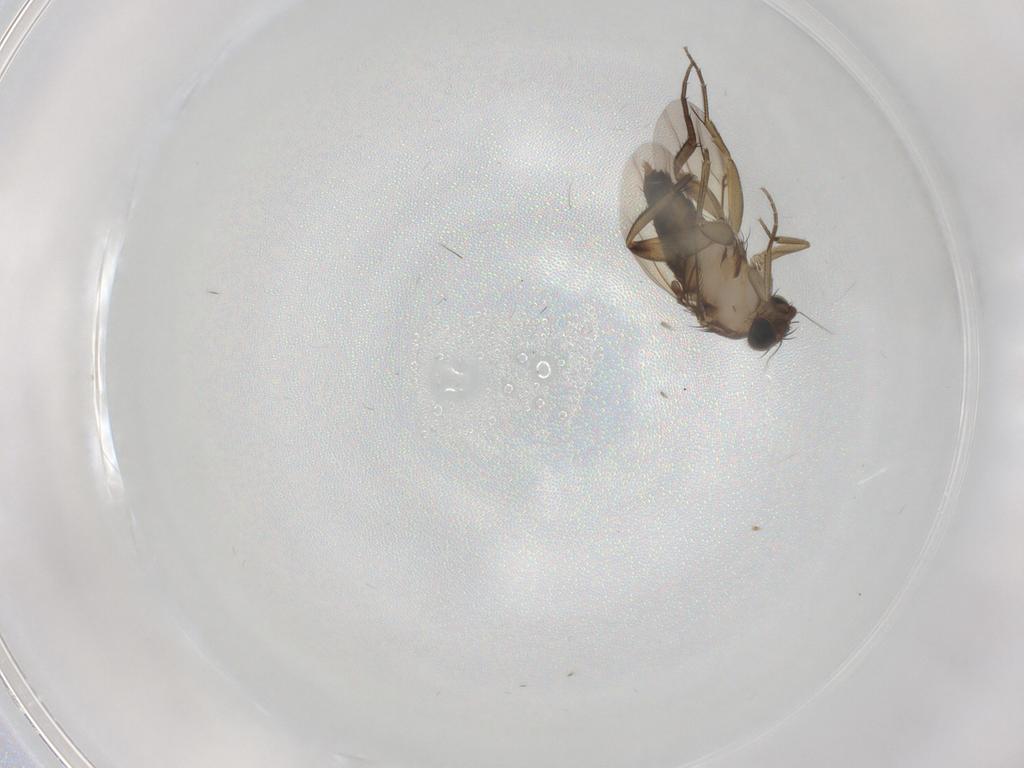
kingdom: Animalia
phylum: Arthropoda
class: Insecta
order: Diptera
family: Phoridae
